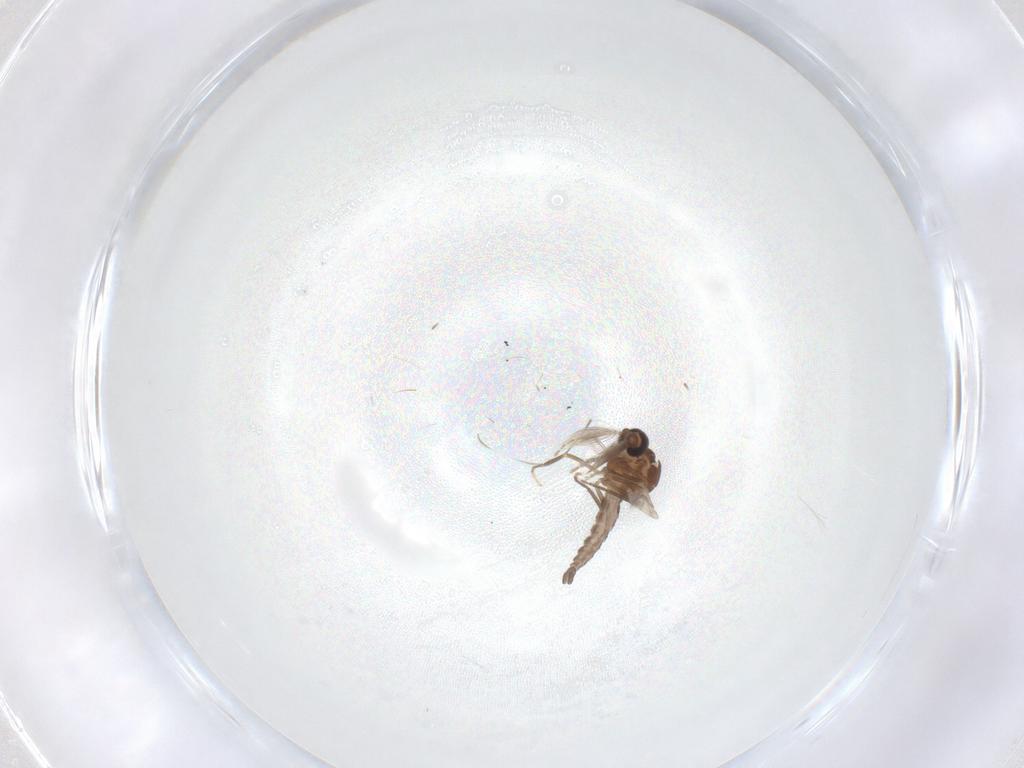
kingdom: Animalia
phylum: Arthropoda
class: Insecta
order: Diptera
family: Ceratopogonidae
